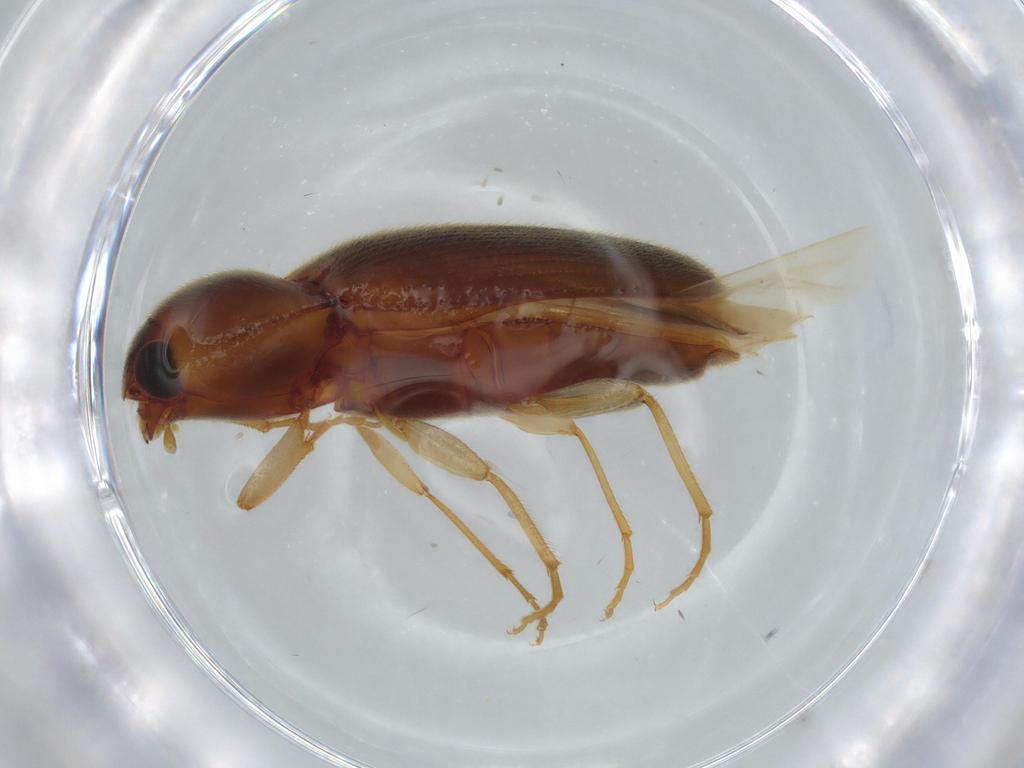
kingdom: Animalia
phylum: Arthropoda
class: Insecta
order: Coleoptera
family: Elateridae
